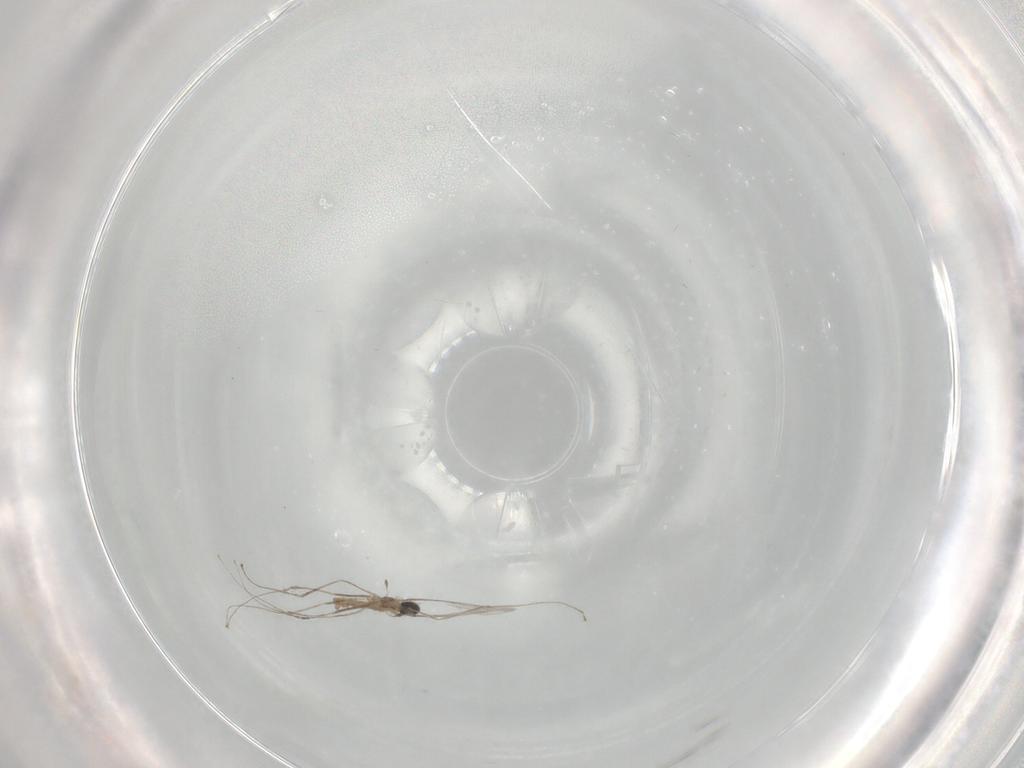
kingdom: Animalia
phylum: Arthropoda
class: Insecta
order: Diptera
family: Cecidomyiidae
